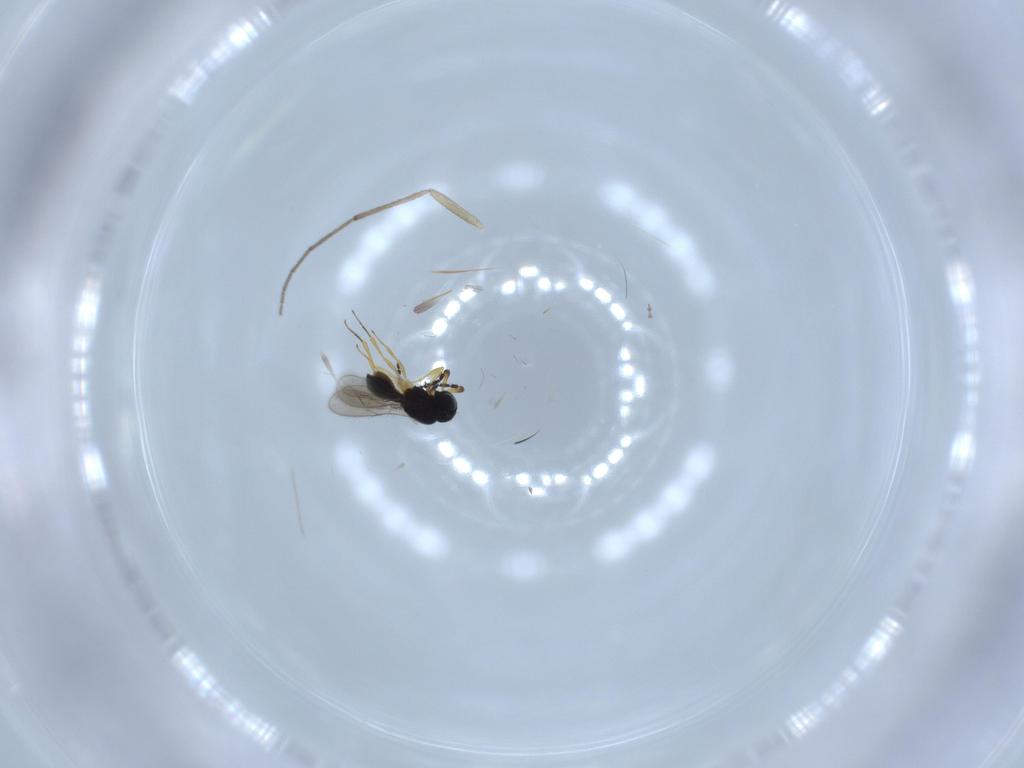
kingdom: Animalia
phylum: Arthropoda
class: Insecta
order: Hymenoptera
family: Scelionidae
